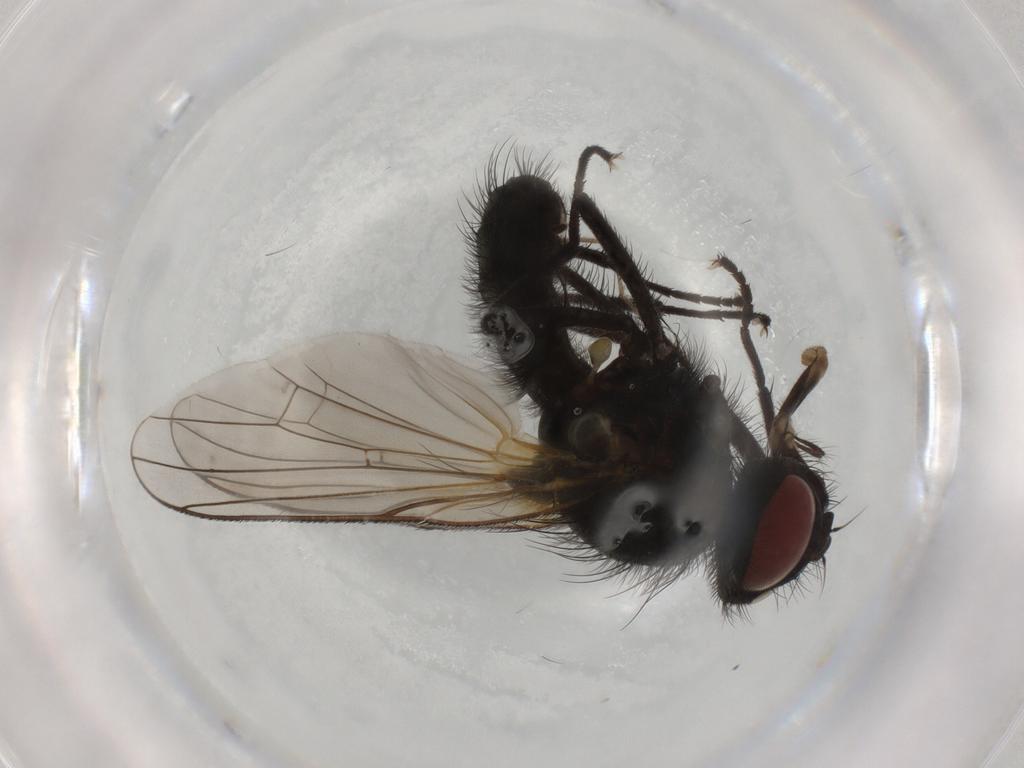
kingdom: Animalia
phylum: Arthropoda
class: Insecta
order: Diptera
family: Anthomyiidae
